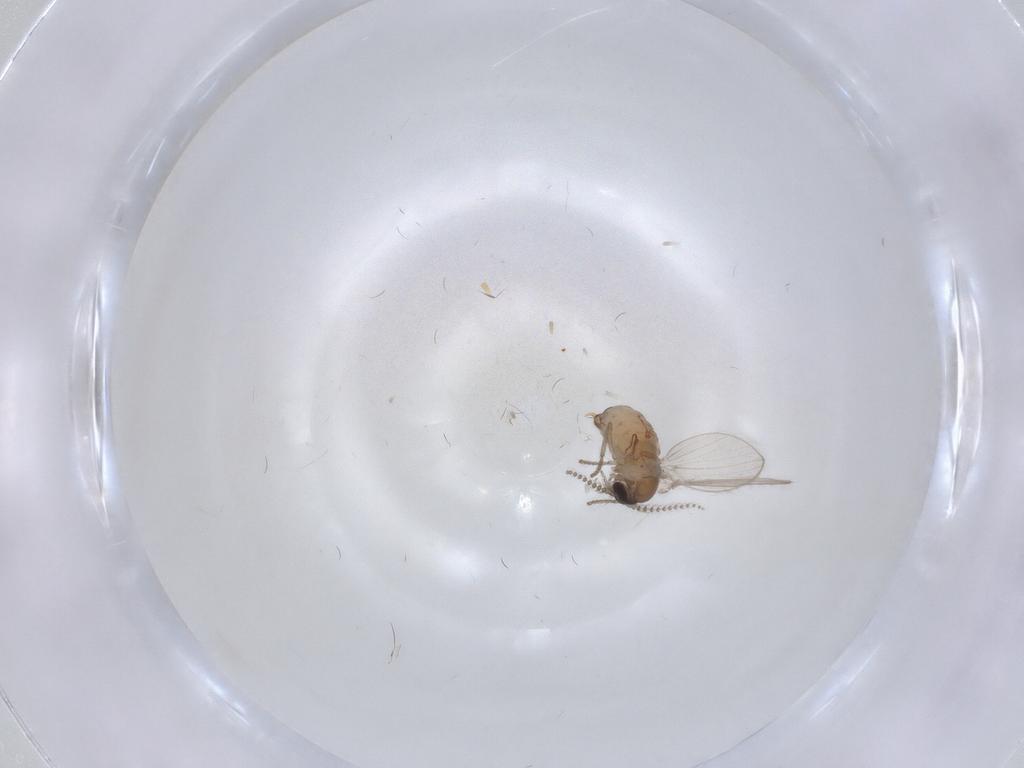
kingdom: Animalia
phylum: Arthropoda
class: Insecta
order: Diptera
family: Psychodidae
